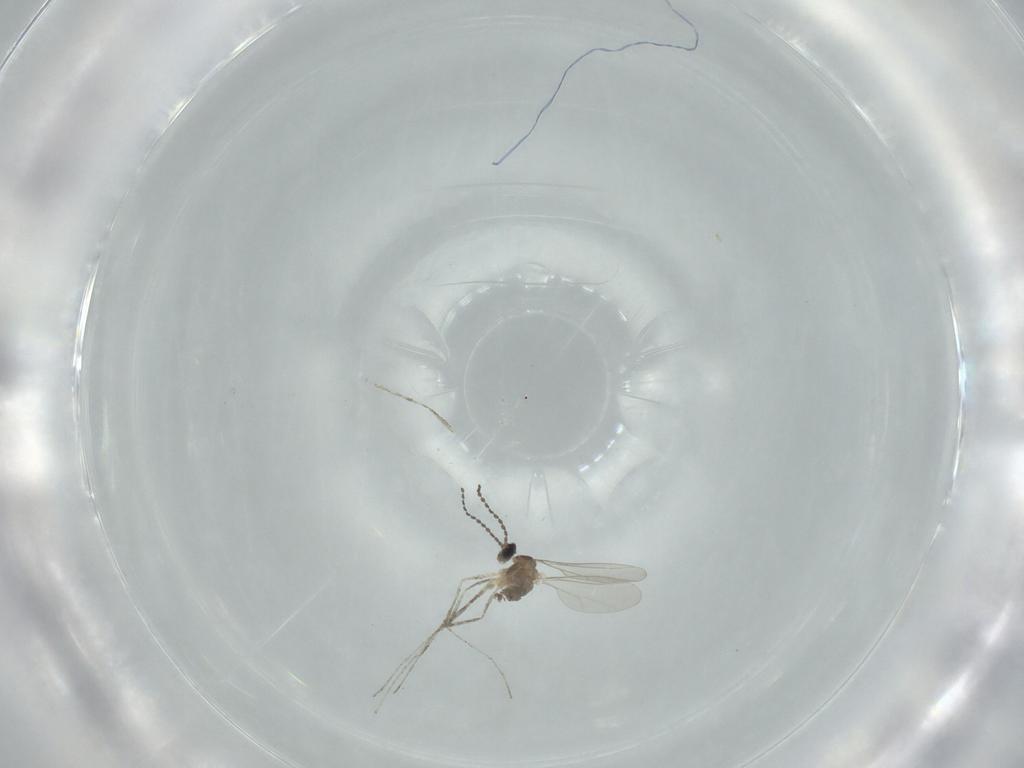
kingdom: Animalia
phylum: Arthropoda
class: Insecta
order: Diptera
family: Cecidomyiidae
